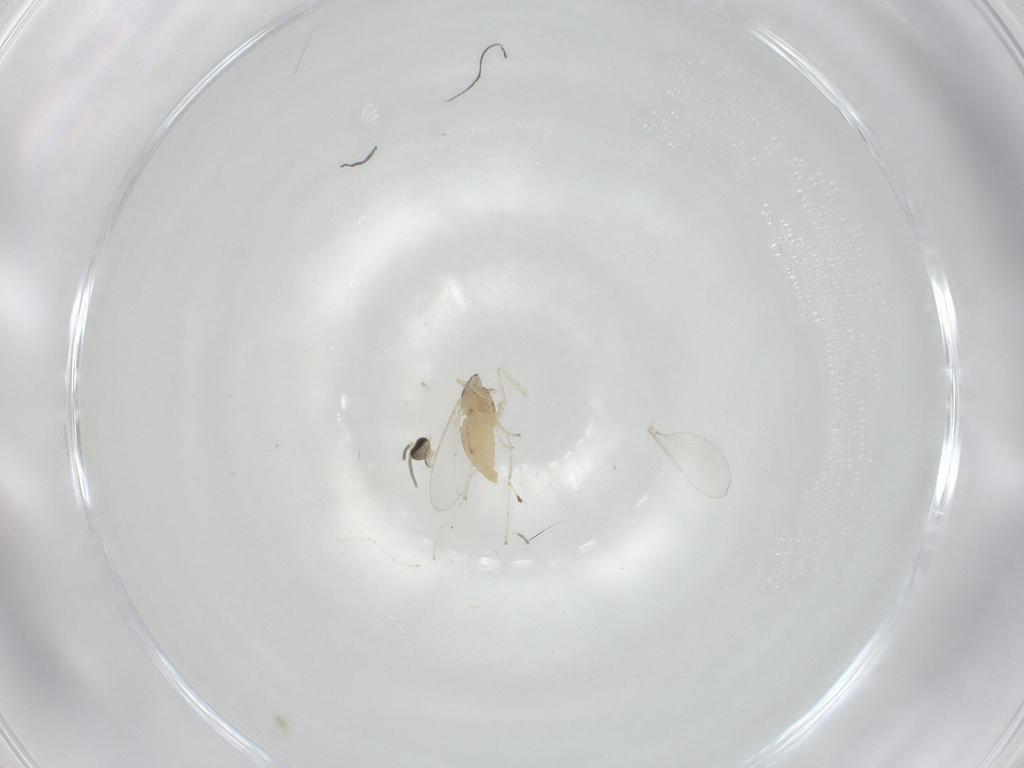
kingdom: Animalia
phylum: Arthropoda
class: Insecta
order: Diptera
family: Cecidomyiidae
